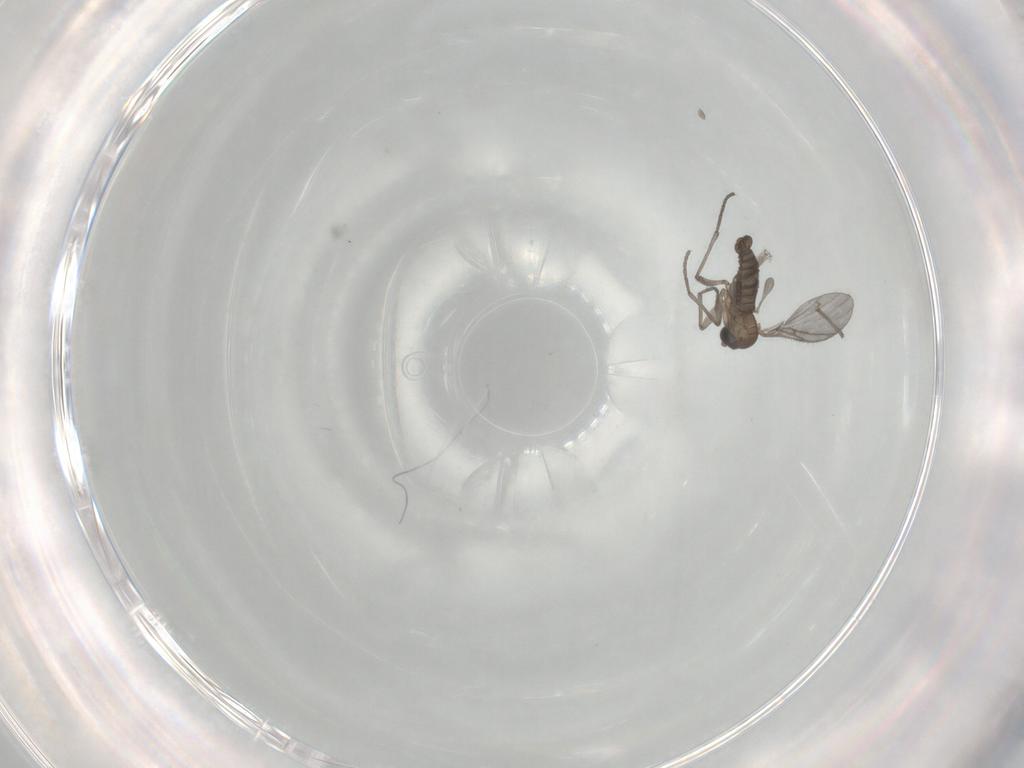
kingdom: Animalia
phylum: Arthropoda
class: Insecta
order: Diptera
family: Sciaridae
